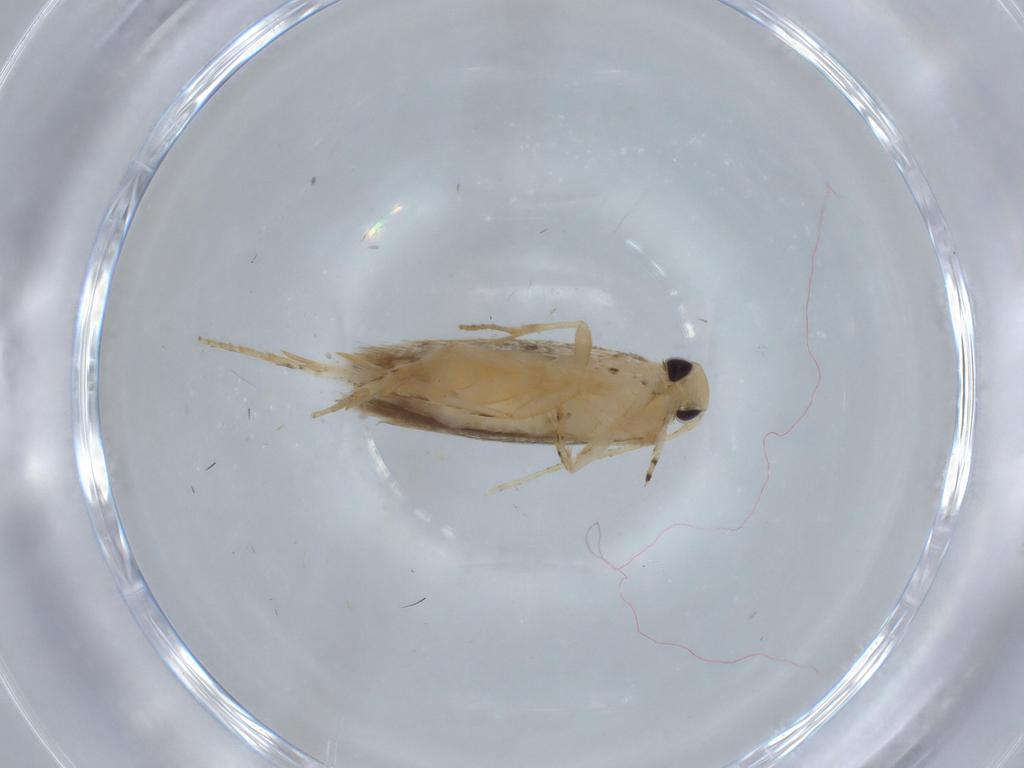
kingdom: Animalia
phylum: Arthropoda
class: Insecta
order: Lepidoptera
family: Gelechiidae
